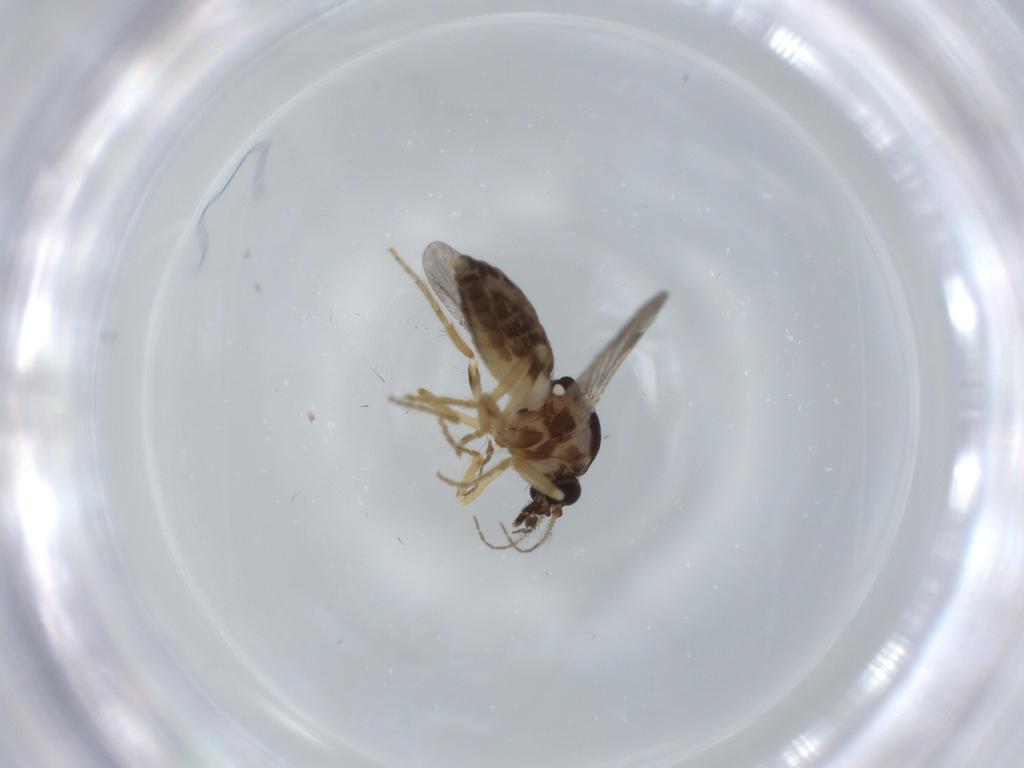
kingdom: Animalia
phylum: Arthropoda
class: Insecta
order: Diptera
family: Ceratopogonidae
